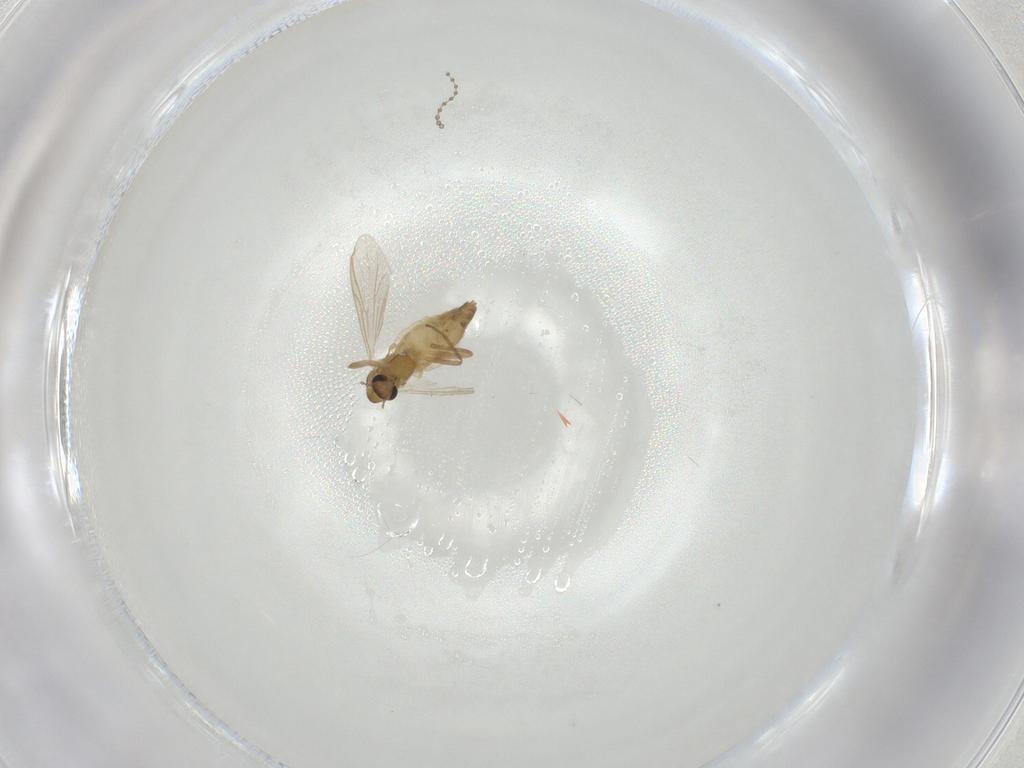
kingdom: Animalia
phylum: Arthropoda
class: Insecta
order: Diptera
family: Chironomidae
